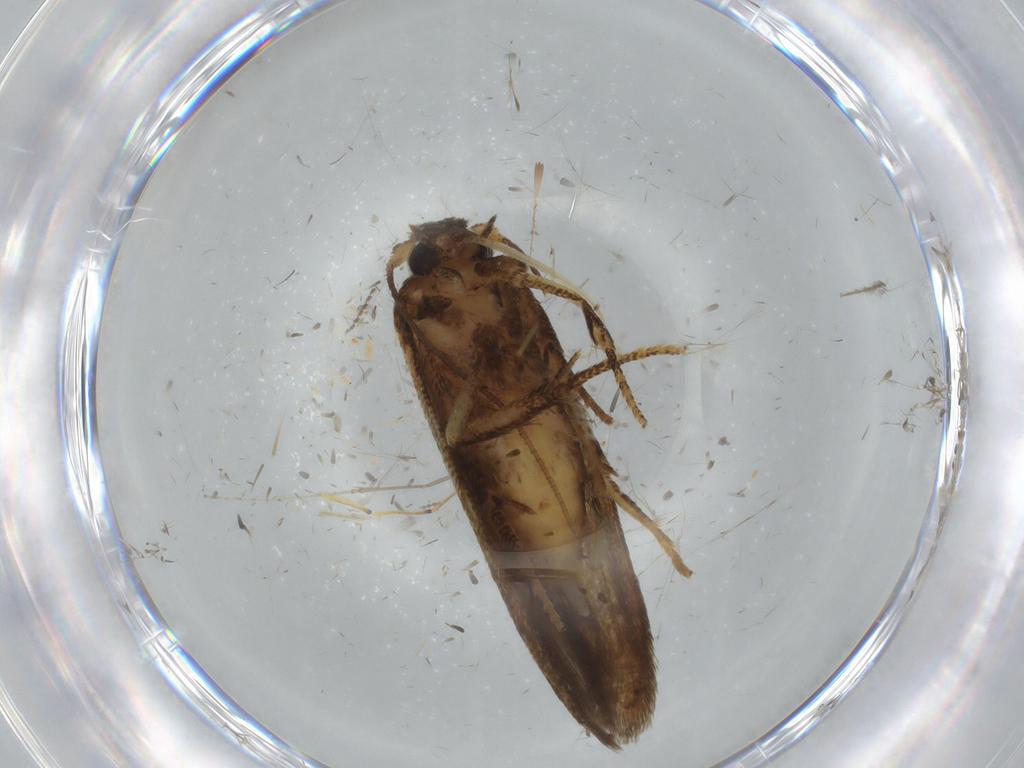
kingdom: Animalia
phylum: Arthropoda
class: Insecta
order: Lepidoptera
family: Blastobasidae
